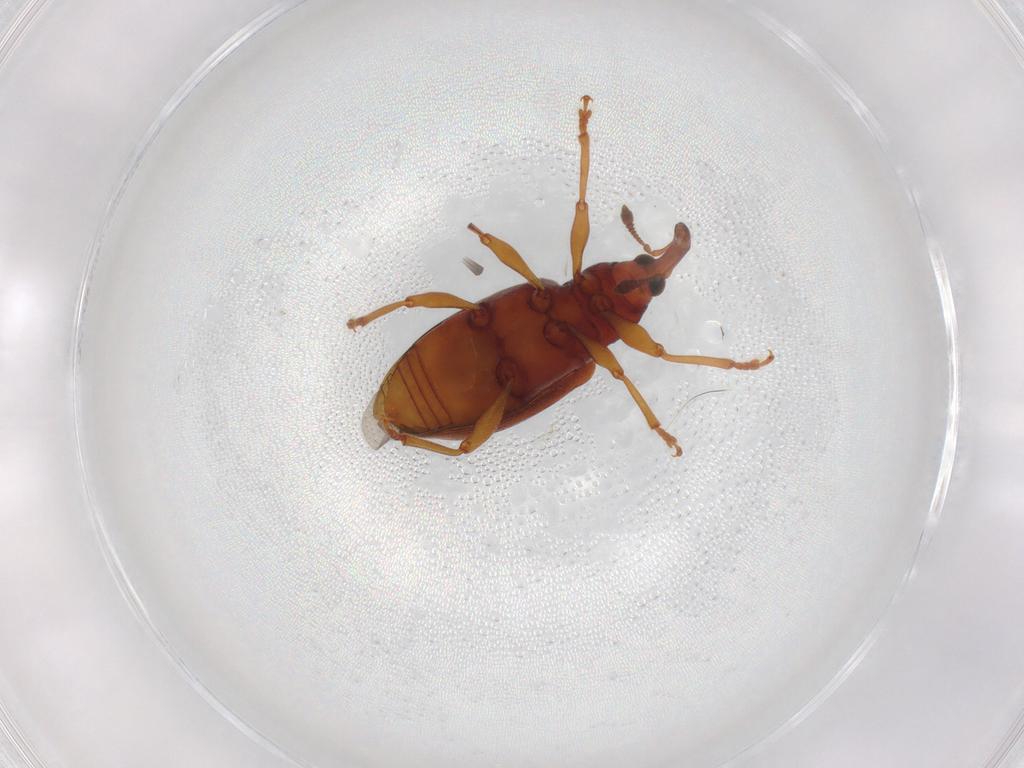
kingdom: Animalia
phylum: Arthropoda
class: Insecta
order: Coleoptera
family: Curculionidae
